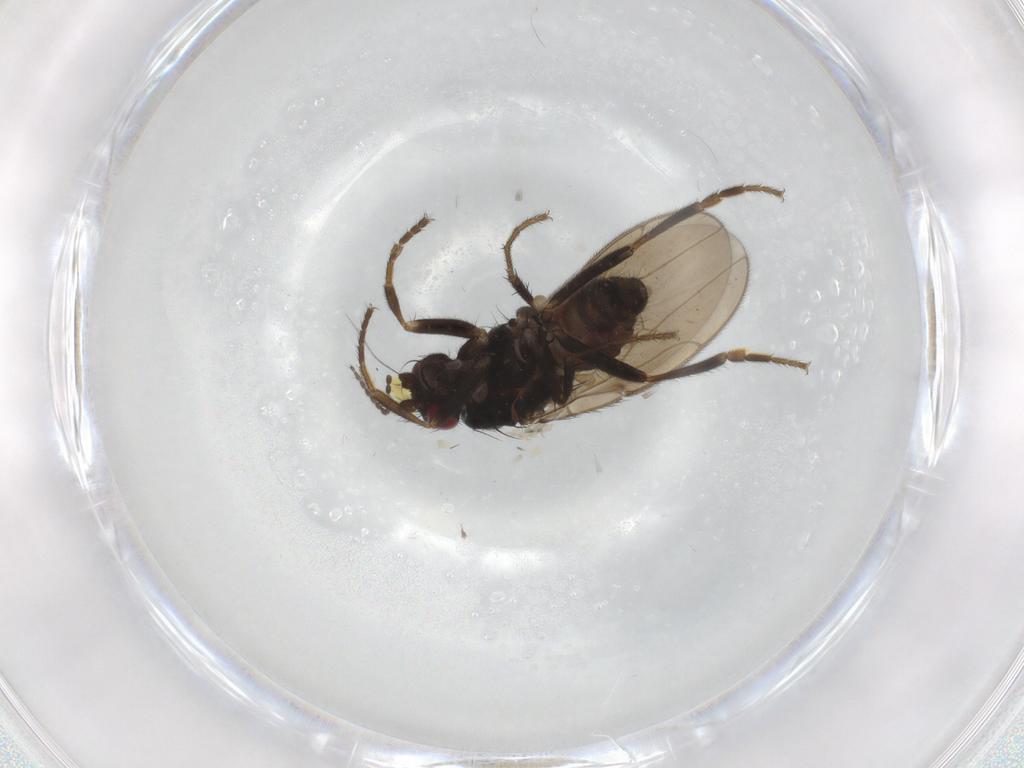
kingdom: Animalia
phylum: Arthropoda
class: Insecta
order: Diptera
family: Sphaeroceridae
